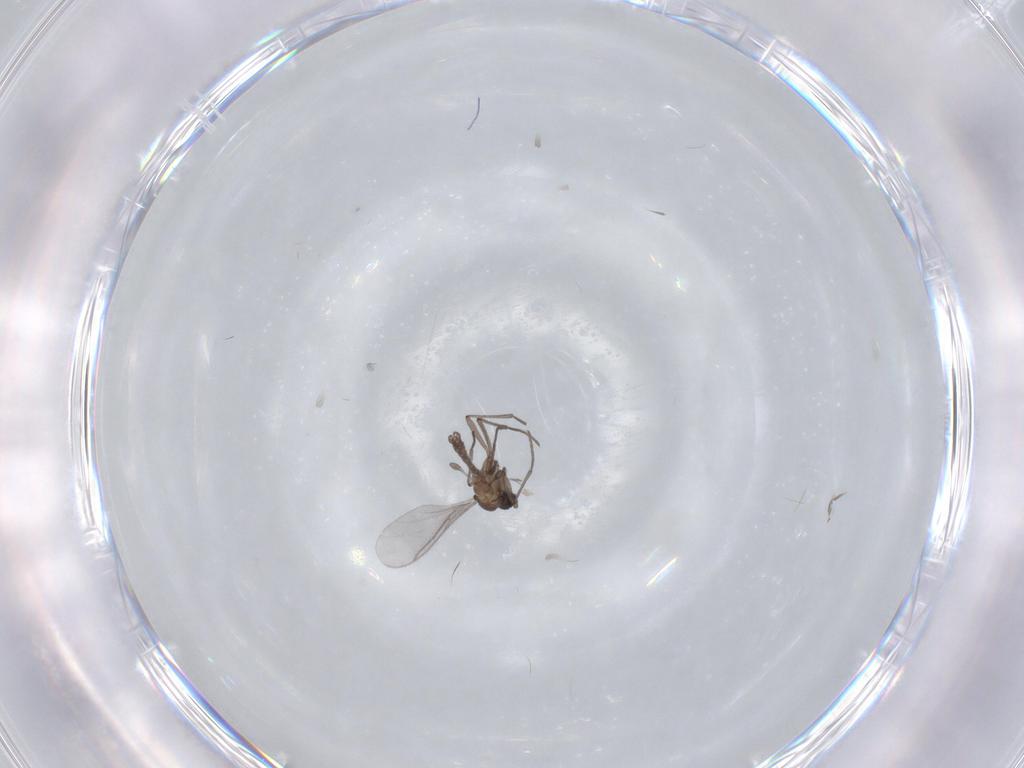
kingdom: Animalia
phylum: Arthropoda
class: Insecta
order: Diptera
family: Sciaridae
